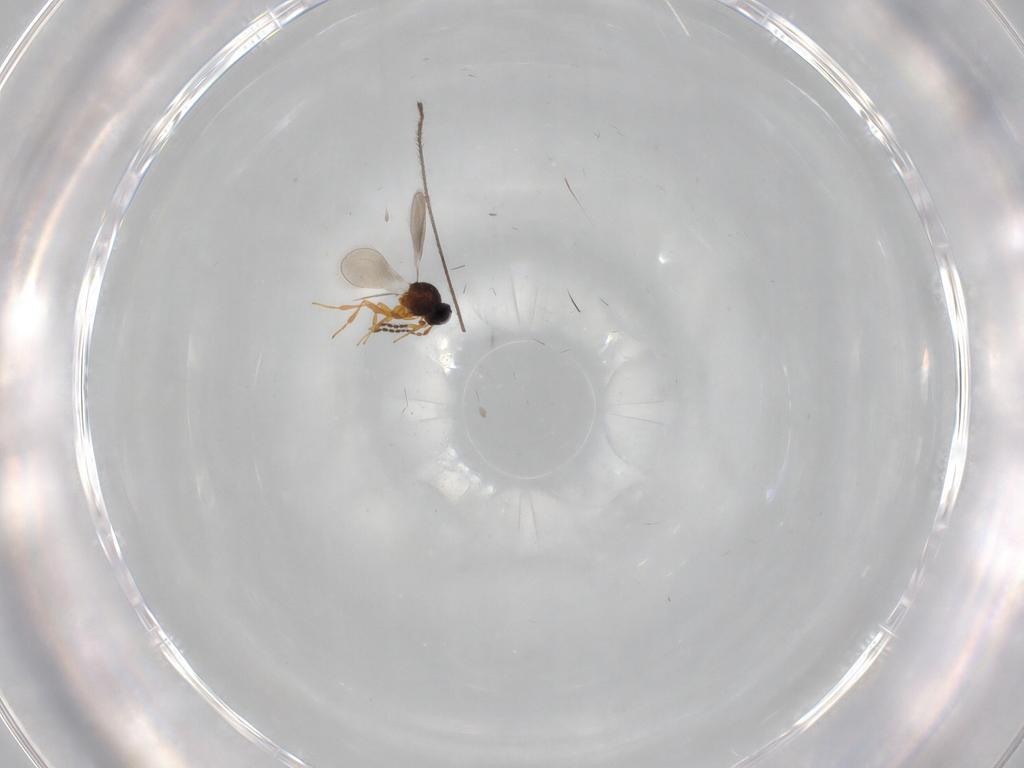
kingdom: Animalia
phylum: Arthropoda
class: Insecta
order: Hymenoptera
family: Platygastridae
